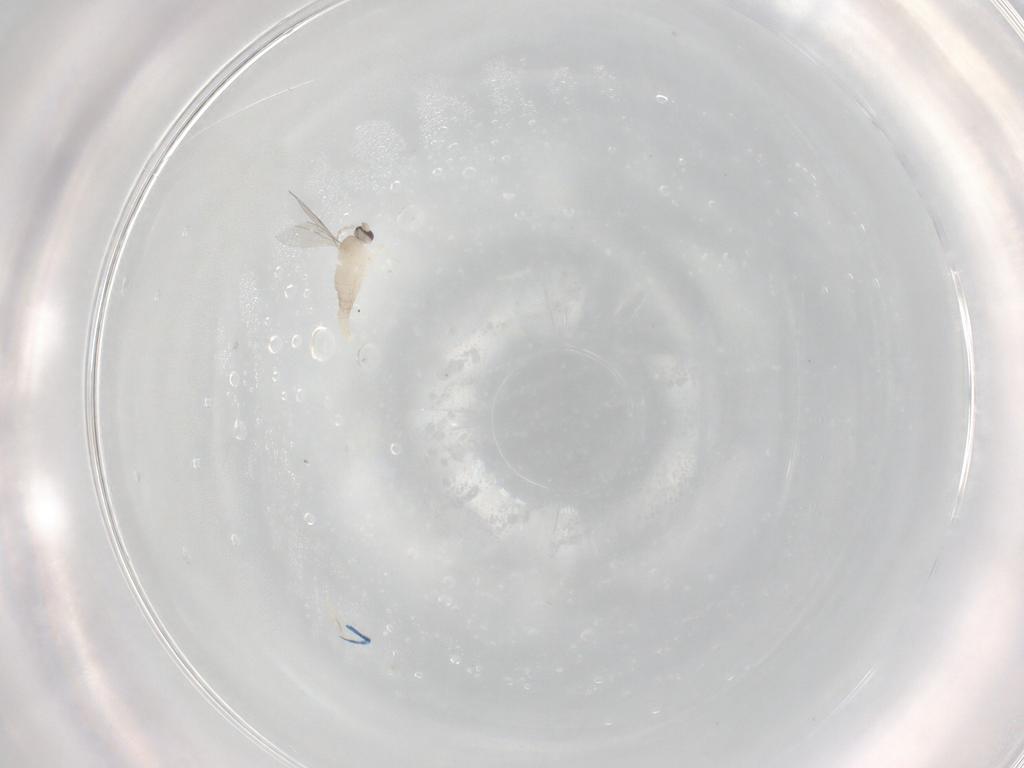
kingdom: Animalia
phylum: Arthropoda
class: Insecta
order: Diptera
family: Cecidomyiidae
